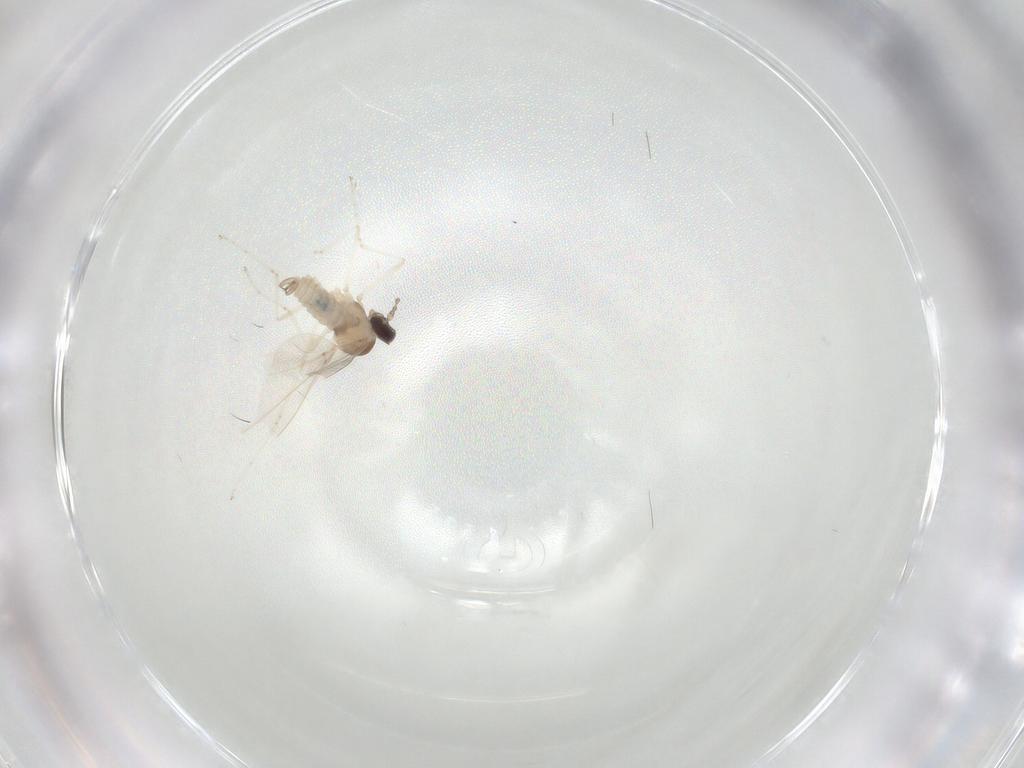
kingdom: Animalia
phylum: Arthropoda
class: Insecta
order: Diptera
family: Cecidomyiidae
